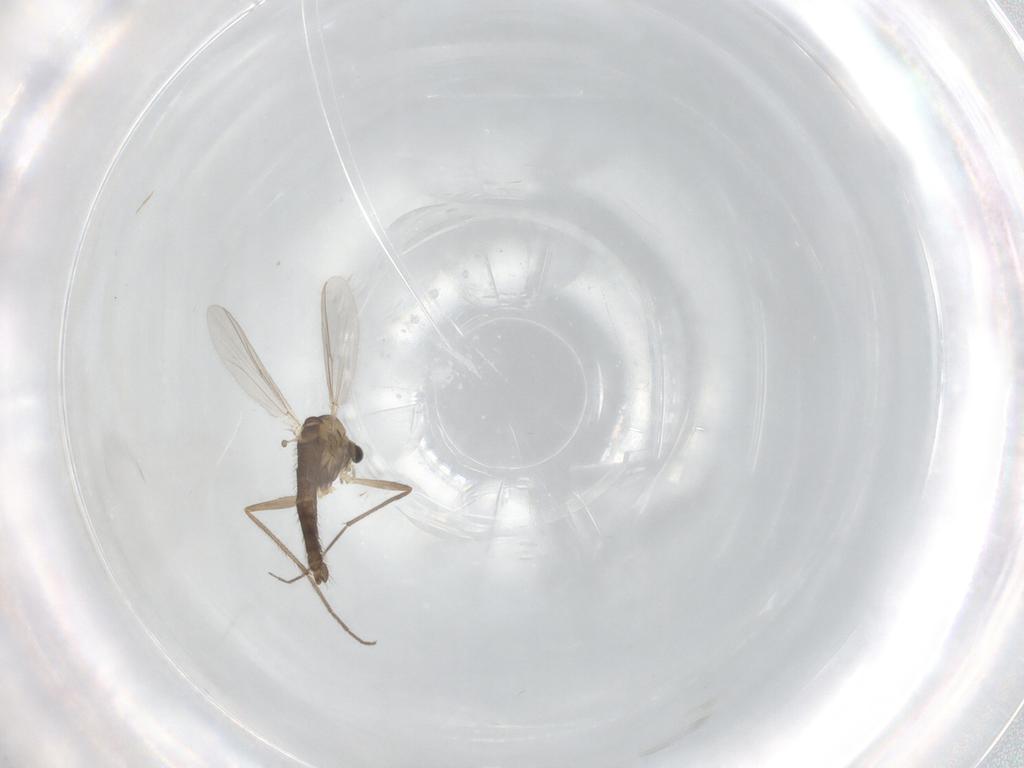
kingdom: Animalia
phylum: Arthropoda
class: Insecta
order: Diptera
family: Chironomidae
